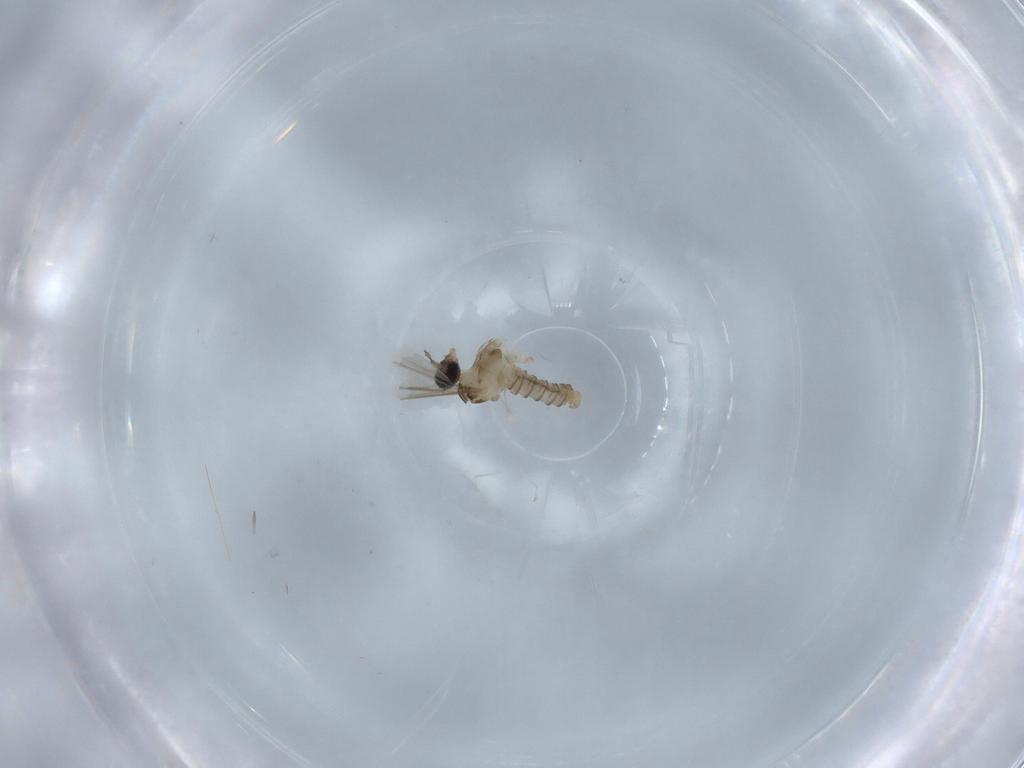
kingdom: Animalia
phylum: Arthropoda
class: Insecta
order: Diptera
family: Cecidomyiidae
